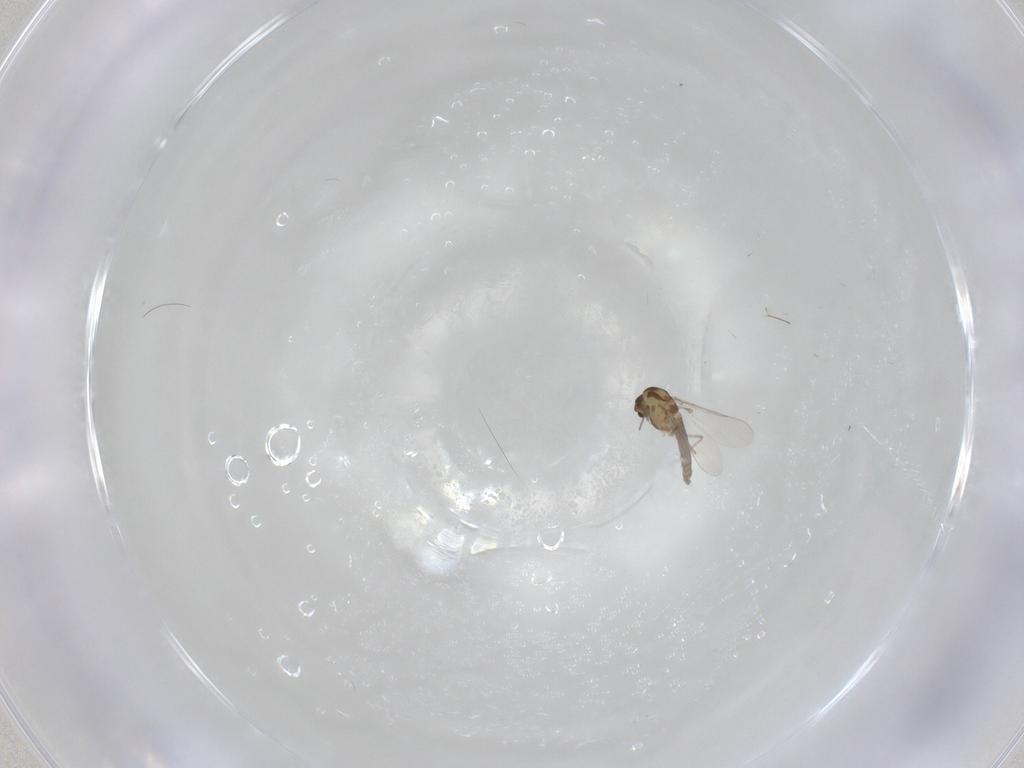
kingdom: Animalia
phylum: Arthropoda
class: Insecta
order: Diptera
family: Chironomidae
